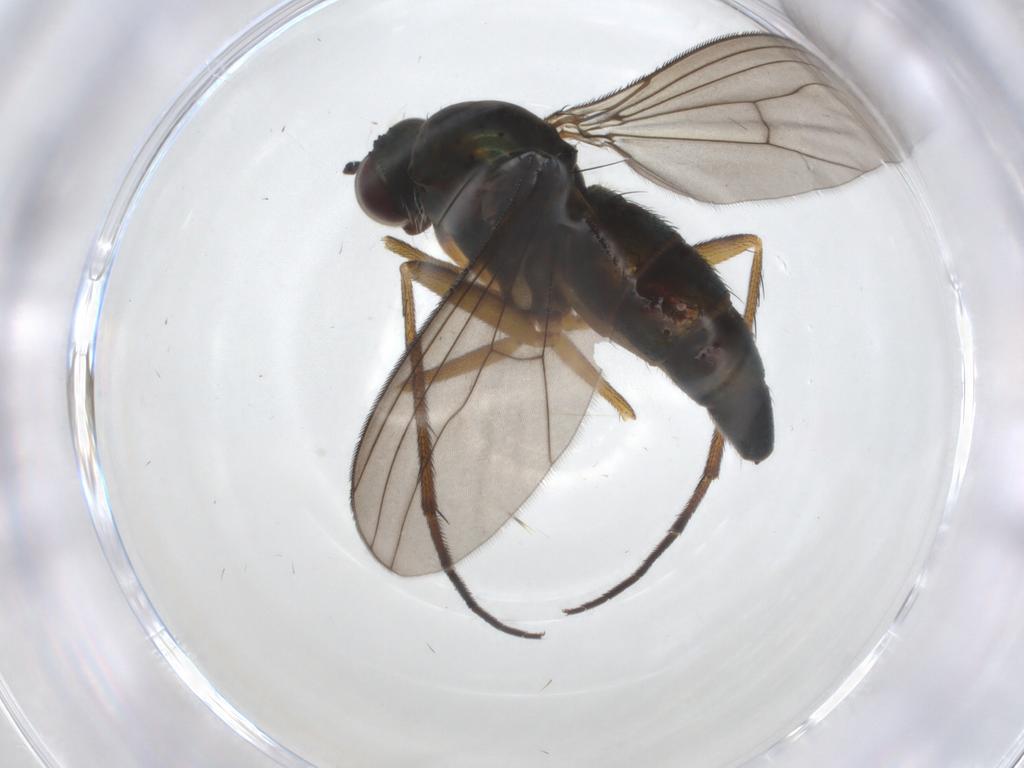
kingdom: Animalia
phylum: Arthropoda
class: Insecta
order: Diptera
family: Dolichopodidae
